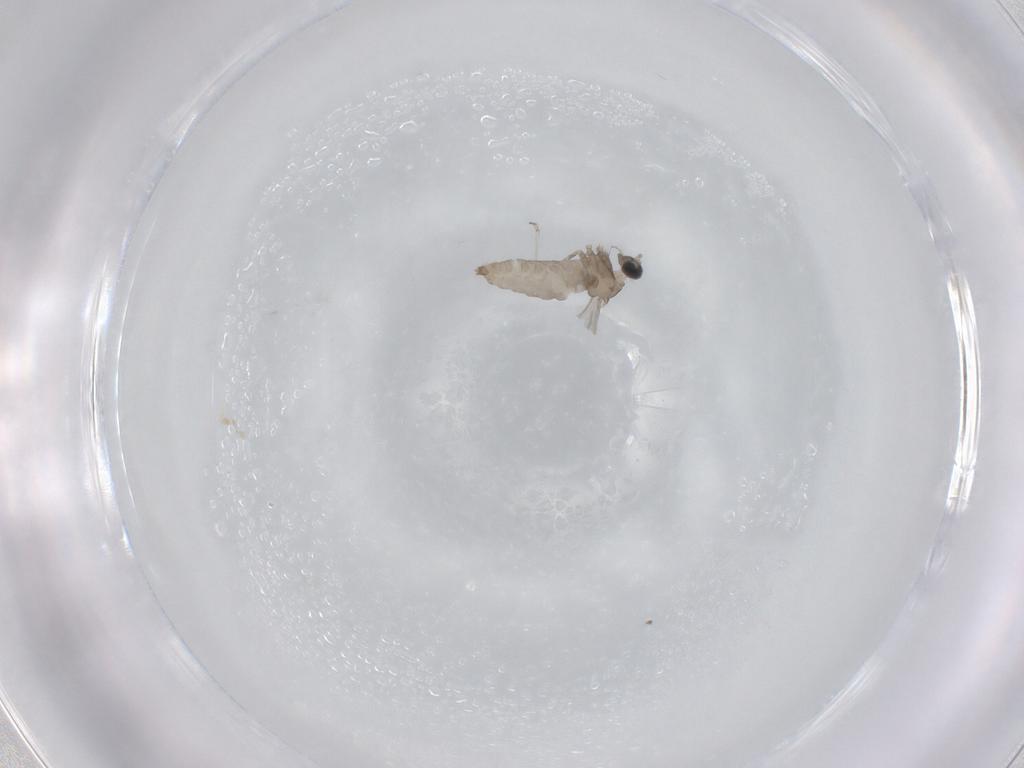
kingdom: Animalia
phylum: Arthropoda
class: Insecta
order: Diptera
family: Cecidomyiidae
